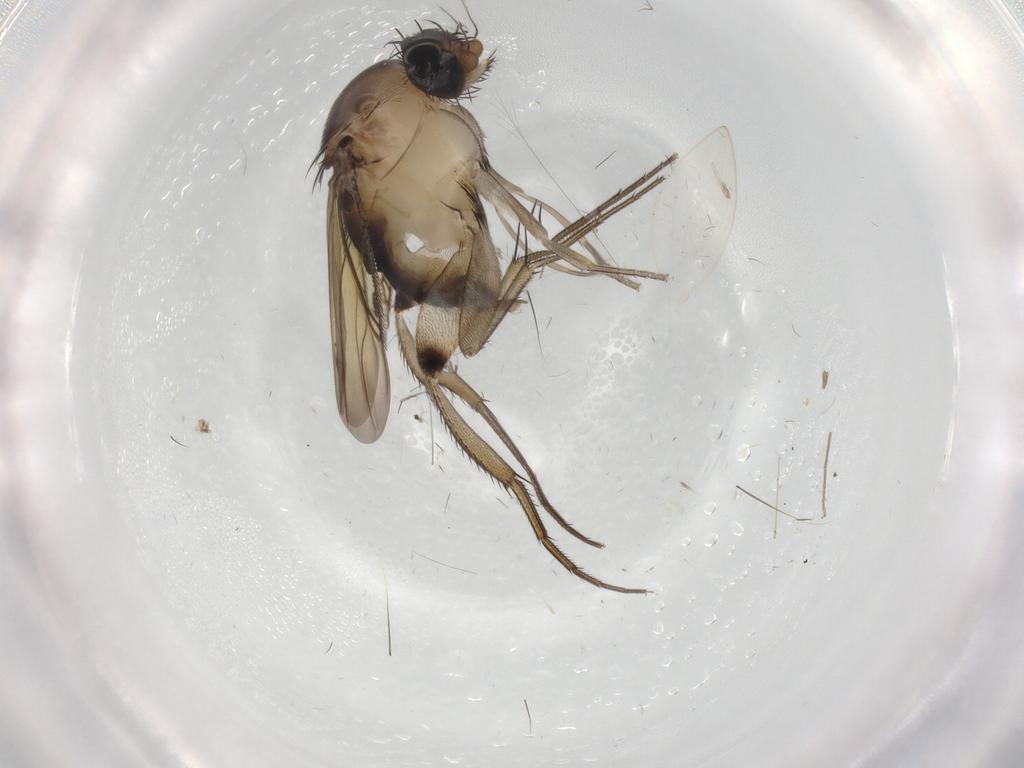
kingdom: Animalia
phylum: Arthropoda
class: Insecta
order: Diptera
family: Phoridae
